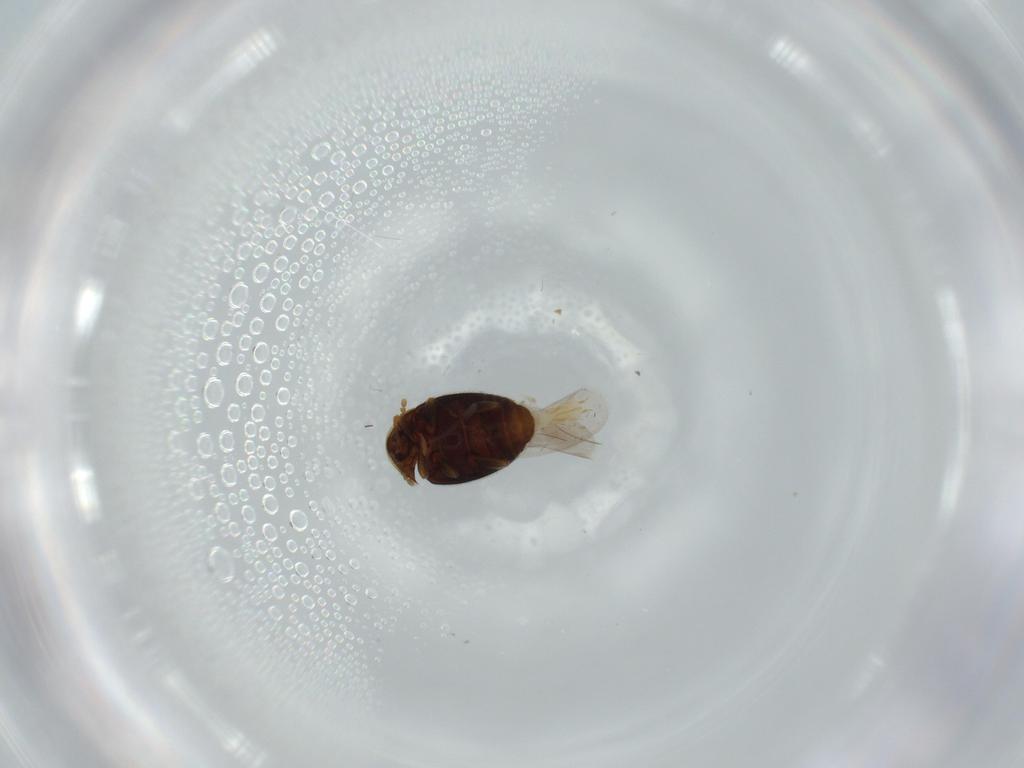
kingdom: Animalia
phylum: Arthropoda
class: Insecta
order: Coleoptera
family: Corylophidae
